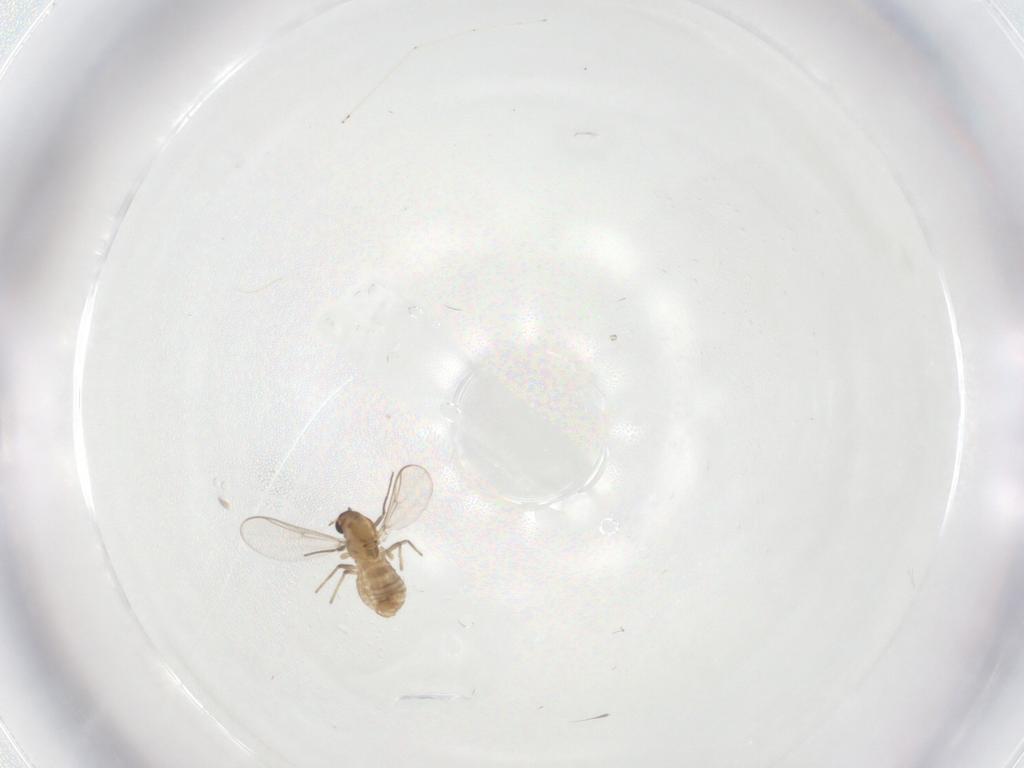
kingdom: Animalia
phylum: Arthropoda
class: Insecta
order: Diptera
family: Chironomidae
